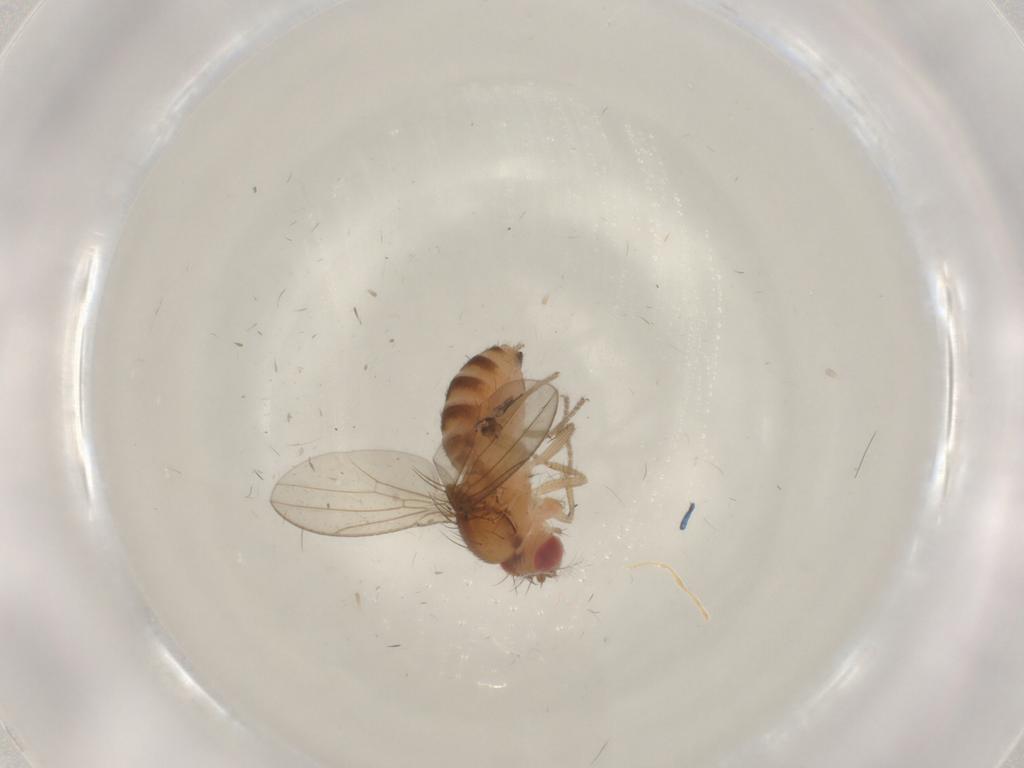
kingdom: Animalia
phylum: Arthropoda
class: Insecta
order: Diptera
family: Drosophilidae
